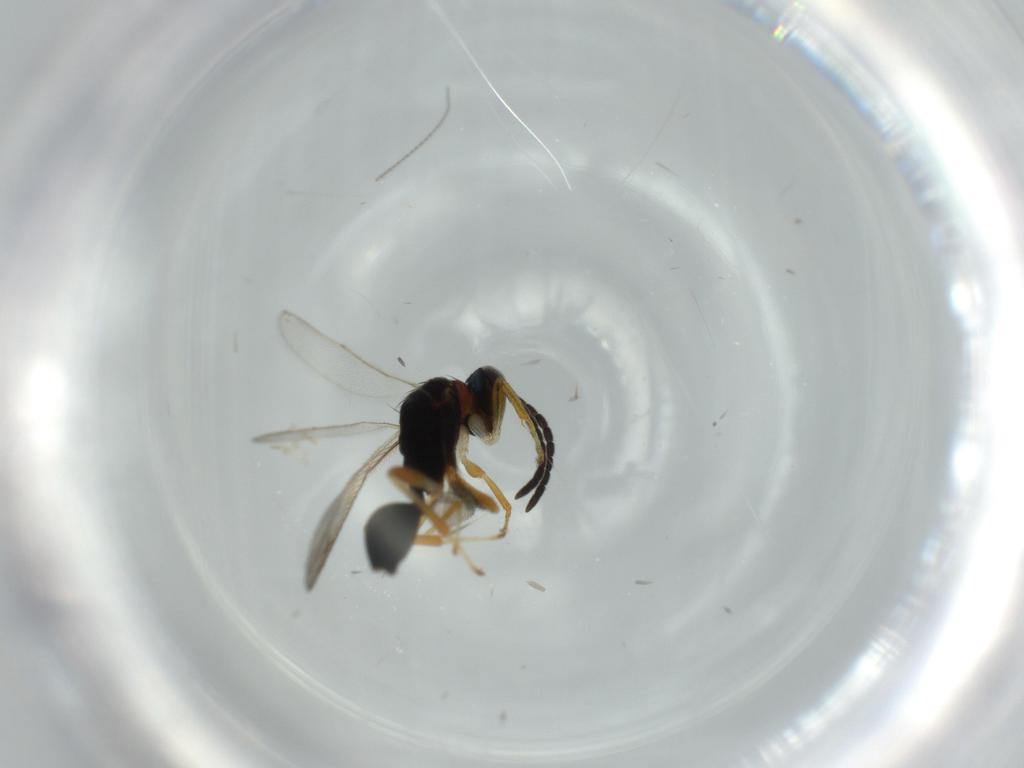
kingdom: Animalia
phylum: Arthropoda
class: Insecta
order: Hymenoptera
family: Diparidae
